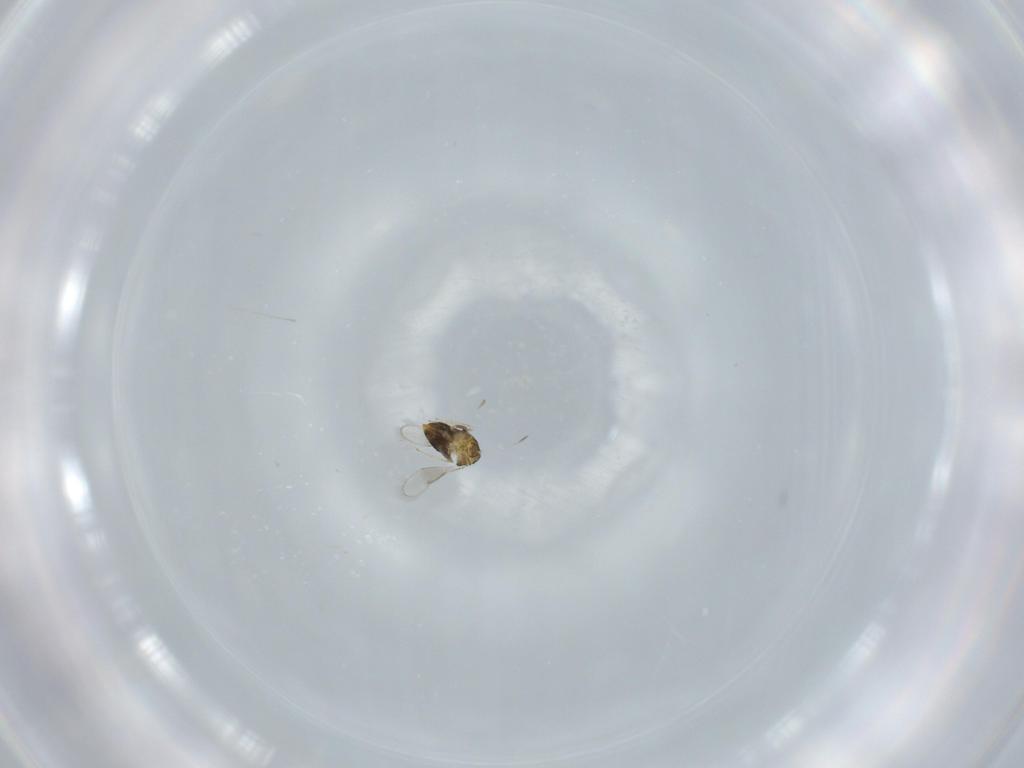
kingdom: Animalia
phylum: Arthropoda
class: Insecta
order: Hymenoptera
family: Aphelinidae
